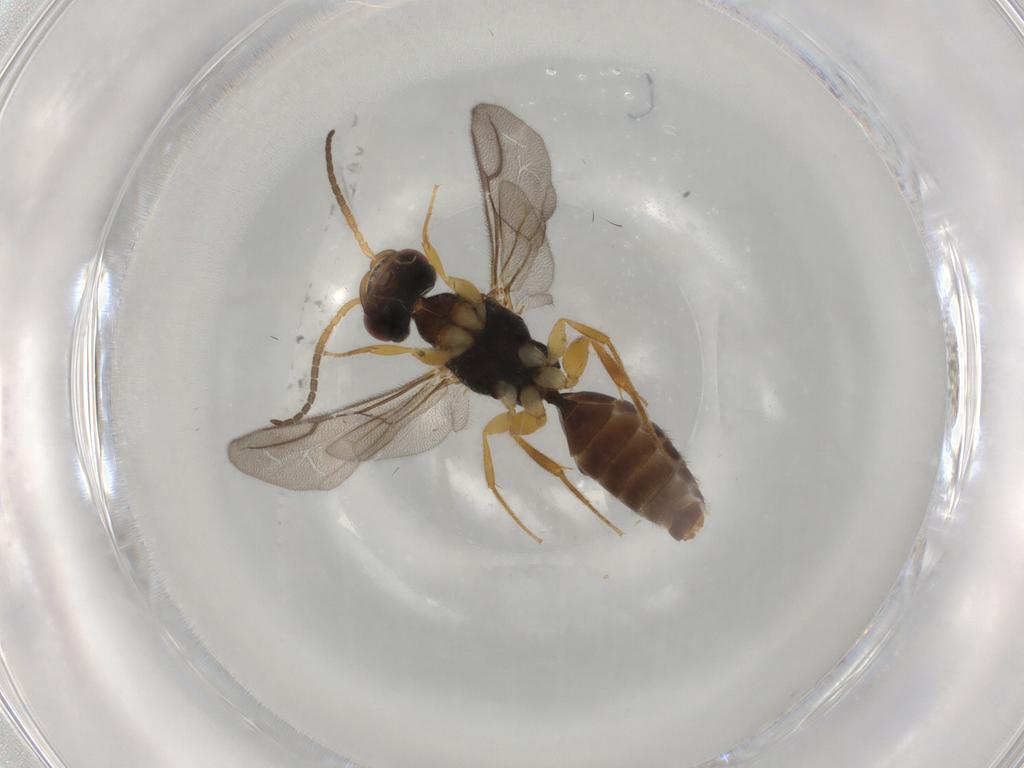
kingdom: Animalia
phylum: Arthropoda
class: Insecta
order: Hymenoptera
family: Bethylidae
